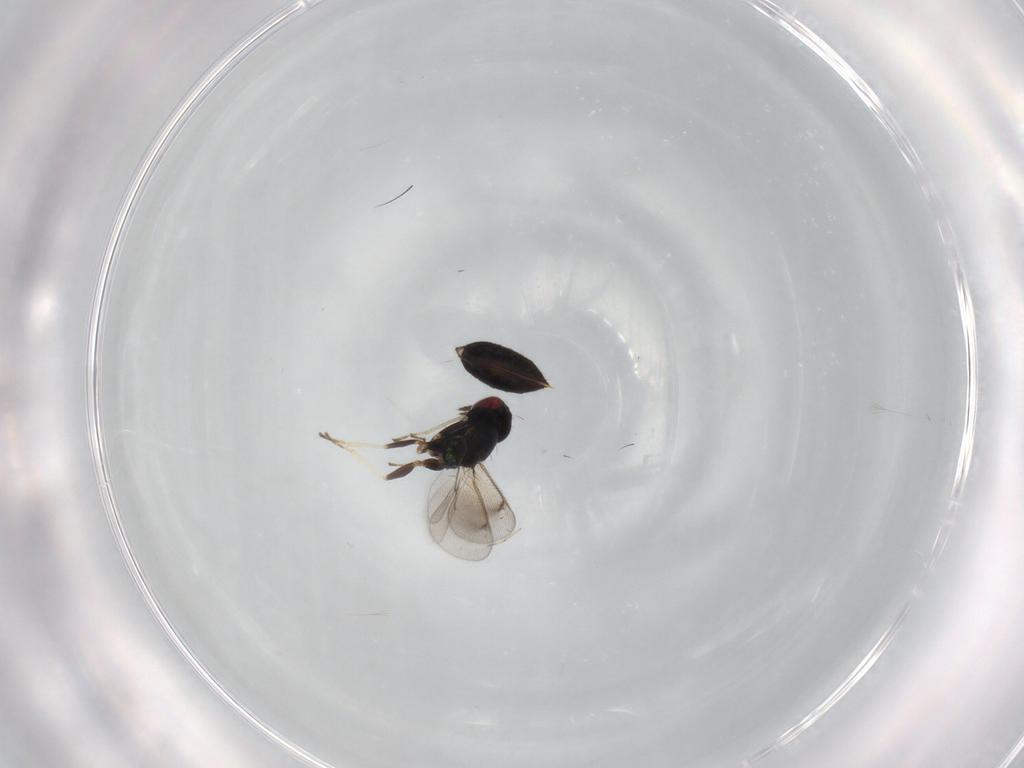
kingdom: Animalia
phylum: Arthropoda
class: Insecta
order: Hymenoptera
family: Eulophidae
